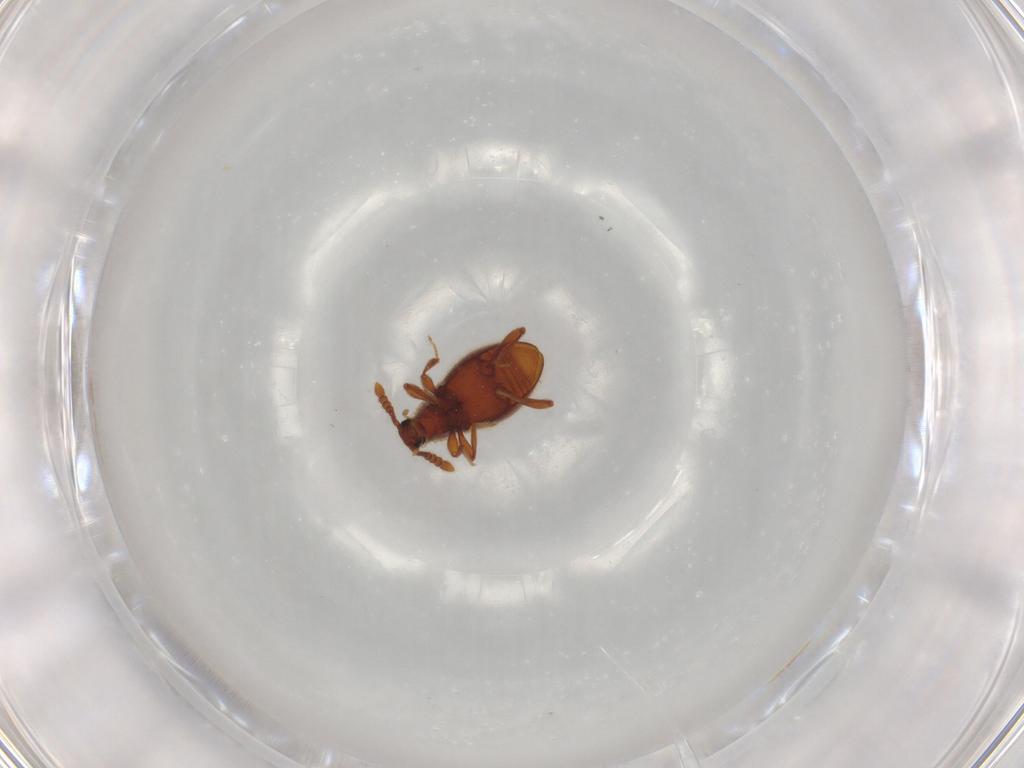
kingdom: Animalia
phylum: Arthropoda
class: Insecta
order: Coleoptera
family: Staphylinidae
